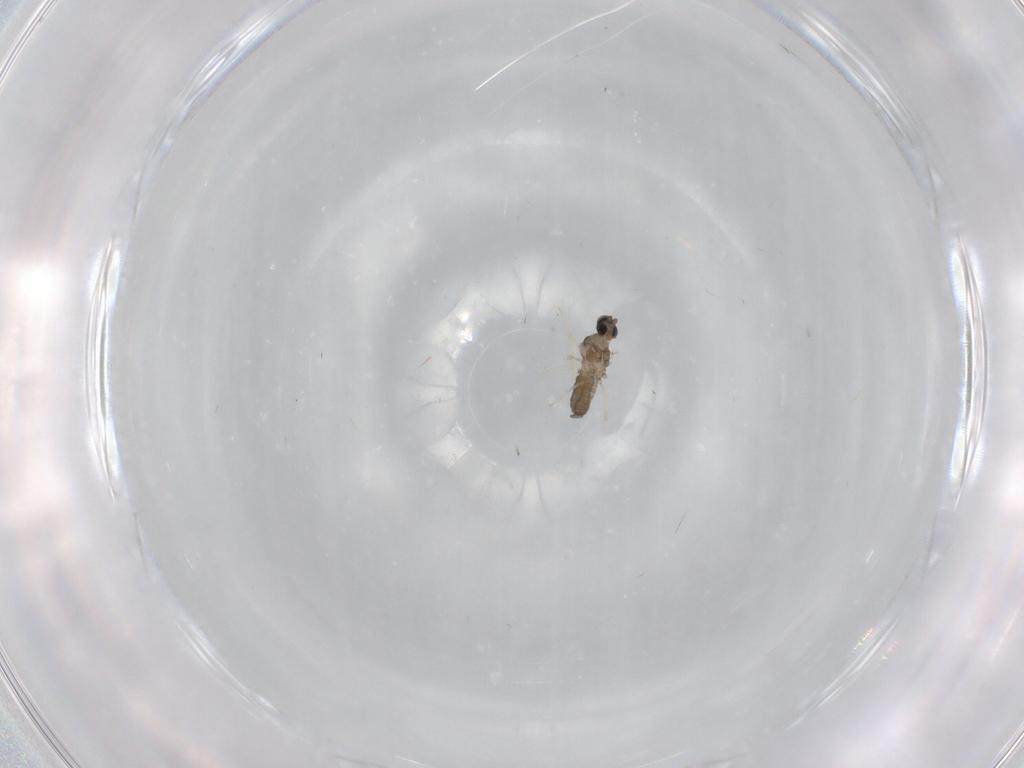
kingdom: Animalia
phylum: Arthropoda
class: Insecta
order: Diptera
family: Cecidomyiidae
